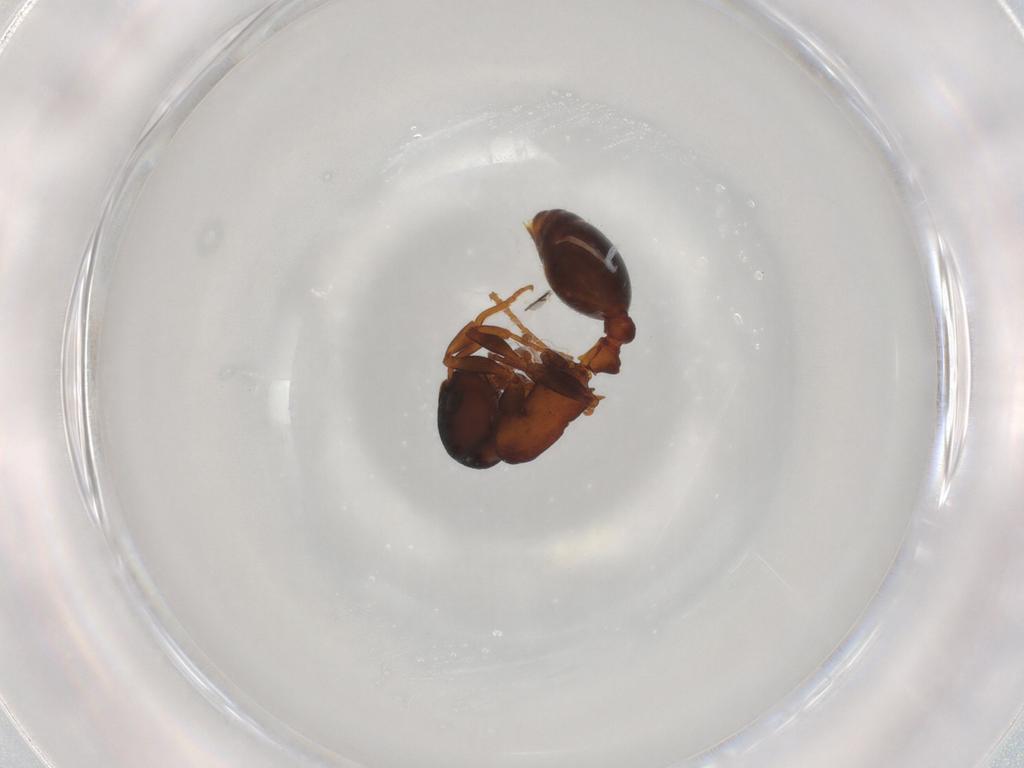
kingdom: Animalia
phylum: Arthropoda
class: Insecta
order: Hymenoptera
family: Formicidae
